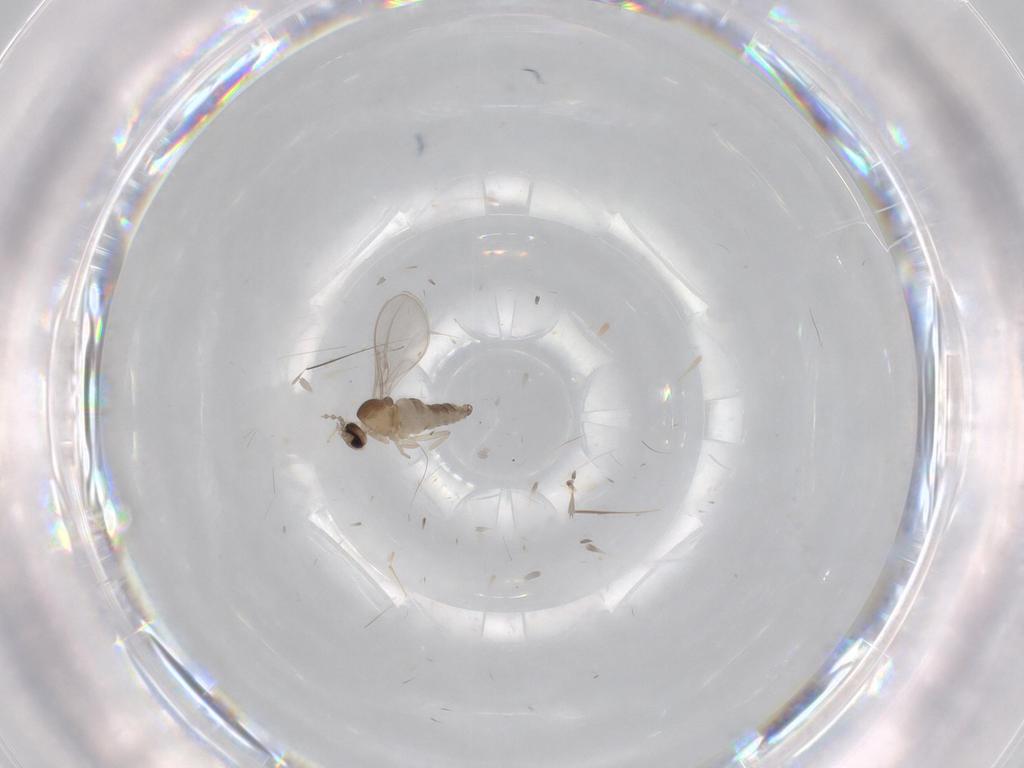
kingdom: Animalia
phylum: Arthropoda
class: Insecta
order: Diptera
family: Cecidomyiidae
